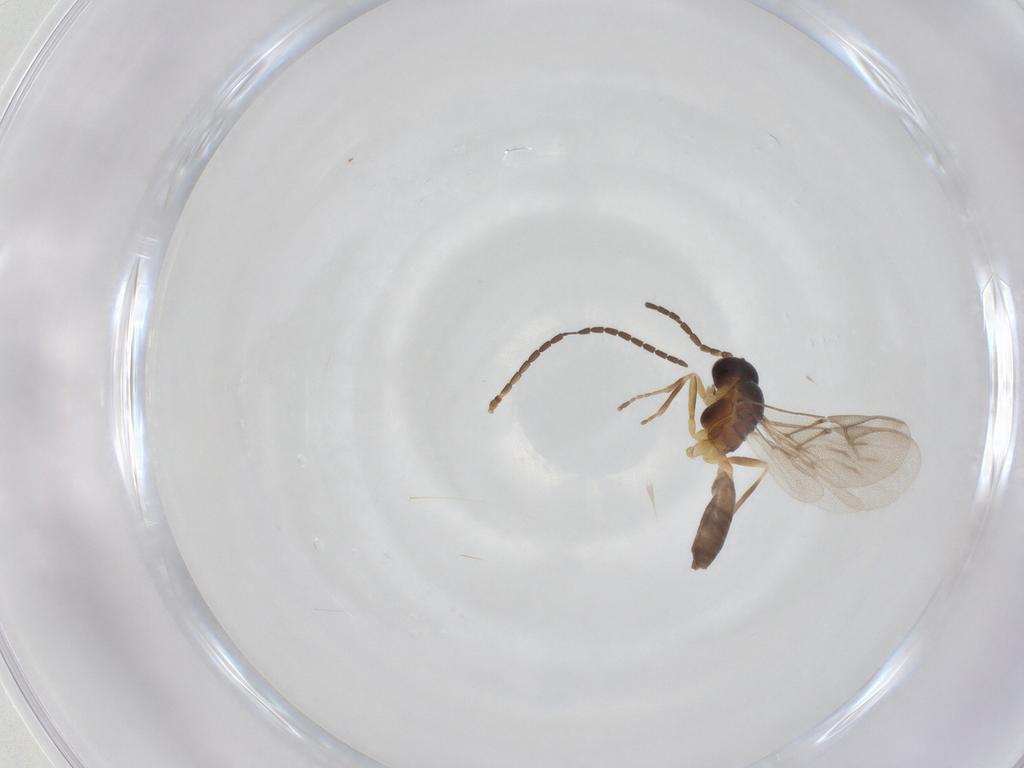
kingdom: Animalia
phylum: Arthropoda
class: Insecta
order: Hymenoptera
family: Braconidae
